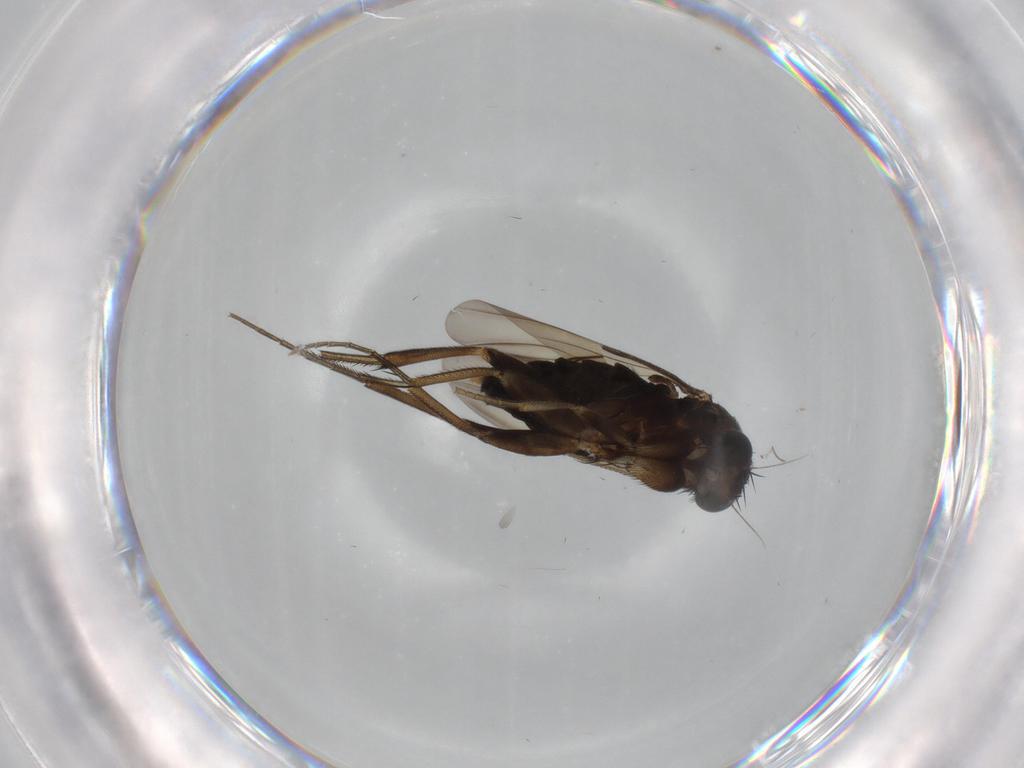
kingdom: Animalia
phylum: Arthropoda
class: Insecta
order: Diptera
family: Phoridae
